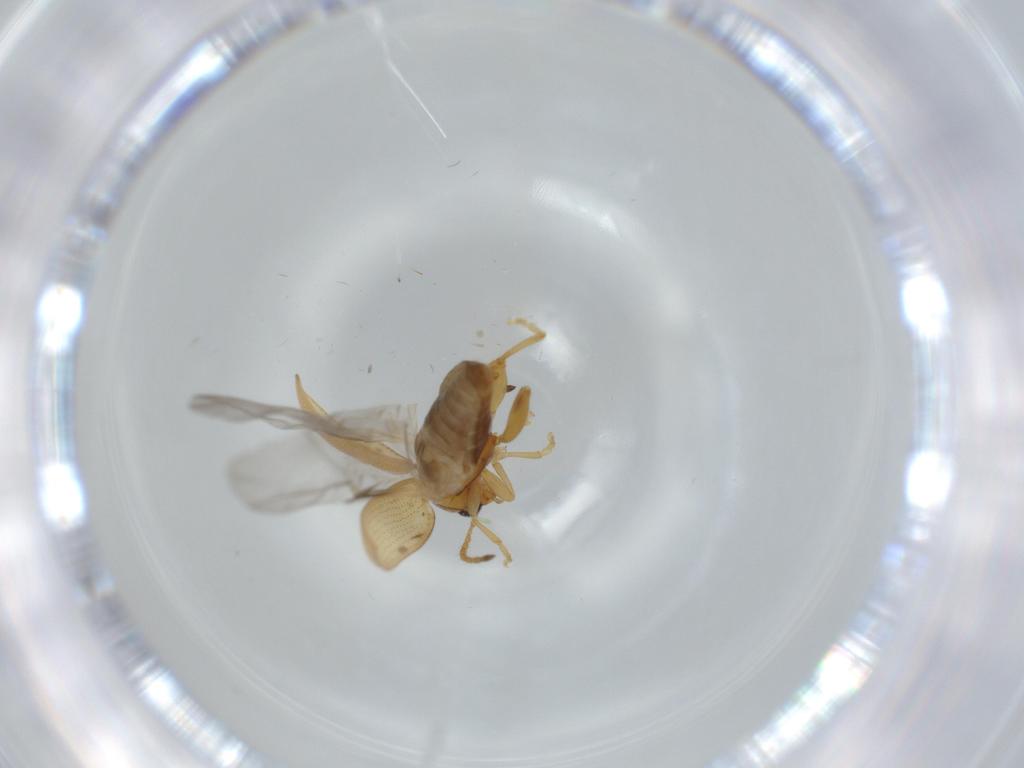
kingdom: Animalia
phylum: Arthropoda
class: Insecta
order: Coleoptera
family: Chrysomelidae
